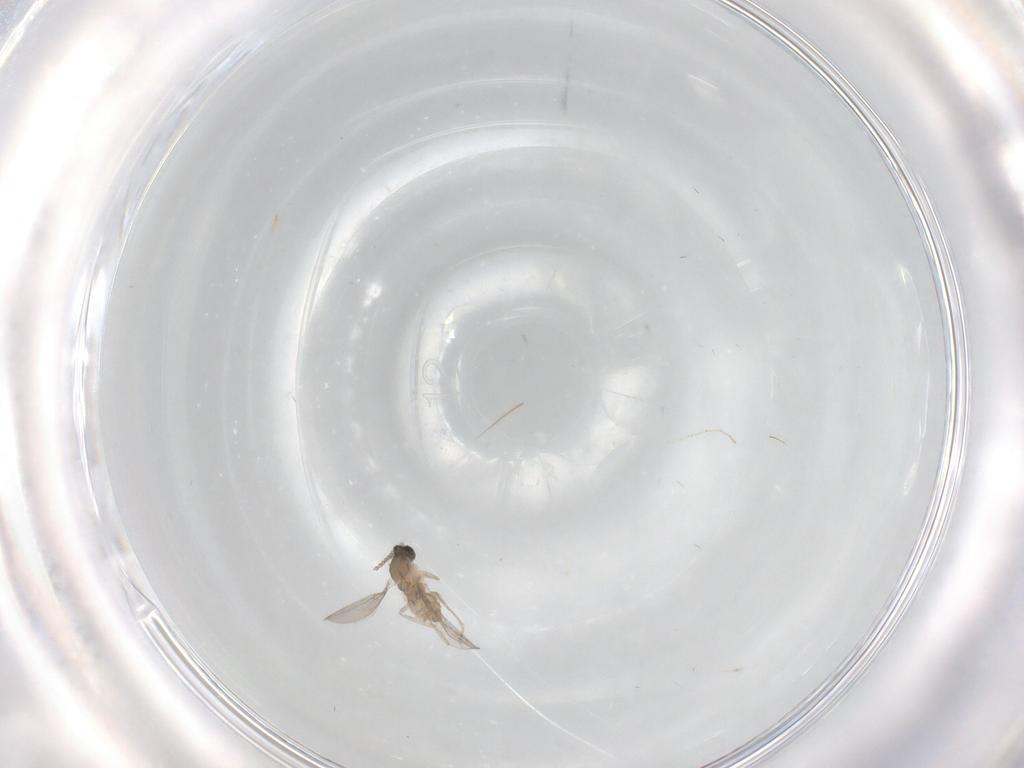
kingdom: Animalia
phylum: Arthropoda
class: Insecta
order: Diptera
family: Cecidomyiidae
